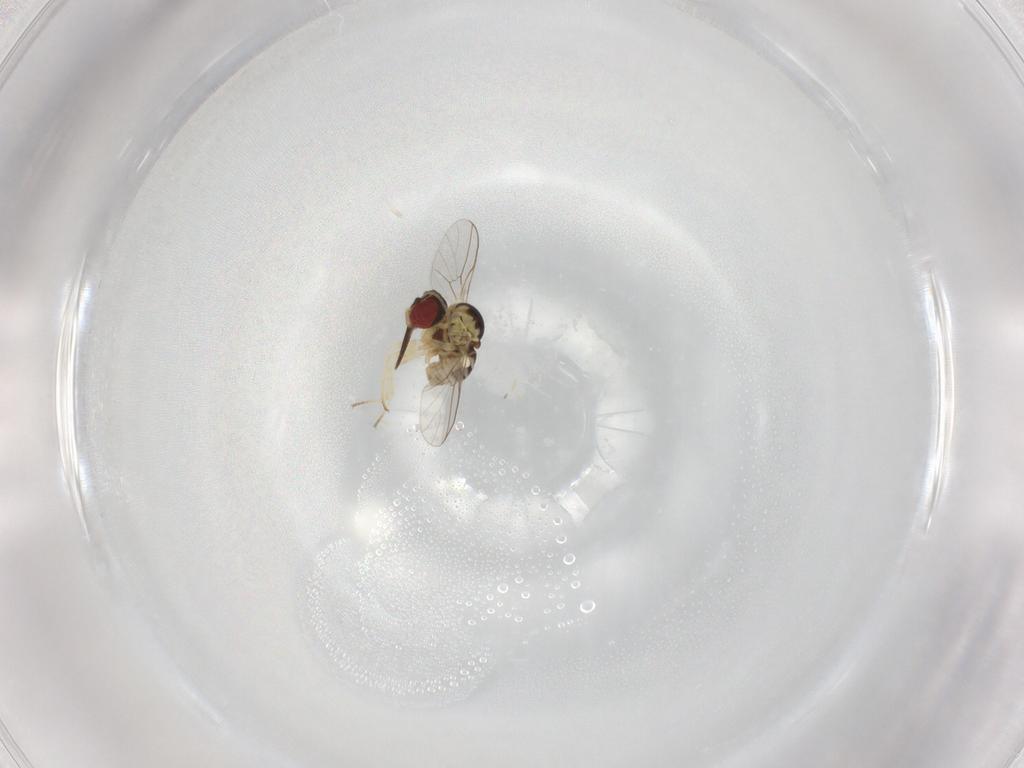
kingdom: Animalia
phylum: Arthropoda
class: Insecta
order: Diptera
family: Bombyliidae
